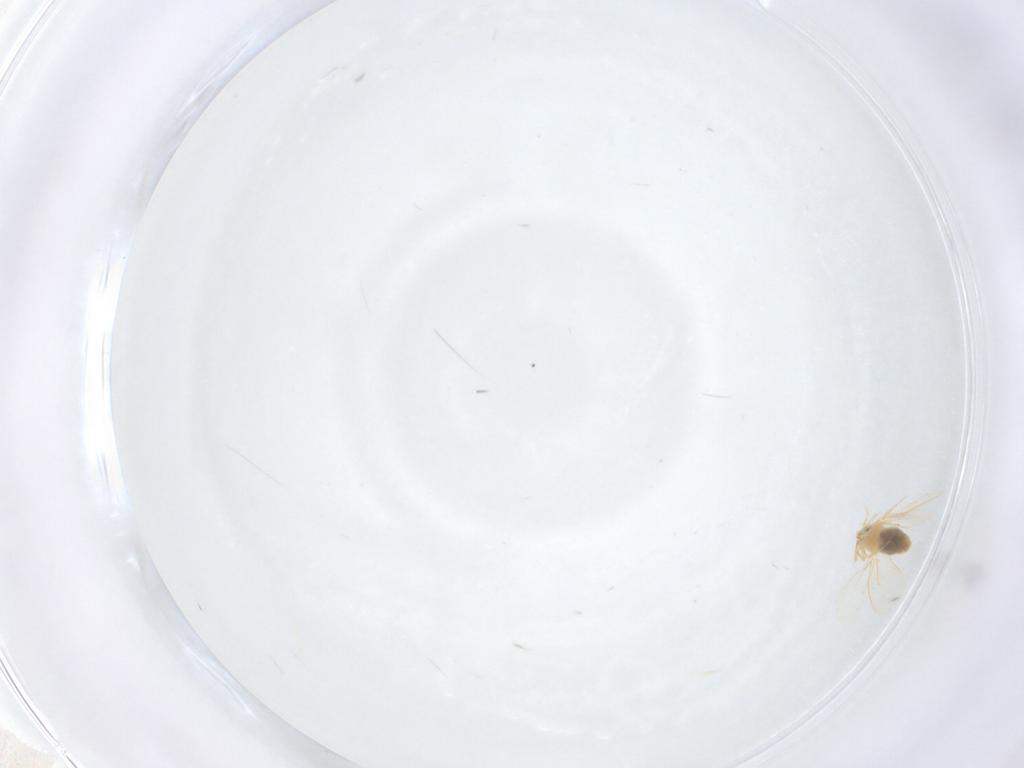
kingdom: Animalia
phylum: Arthropoda
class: Insecta
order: Hemiptera
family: Aleyrodidae
